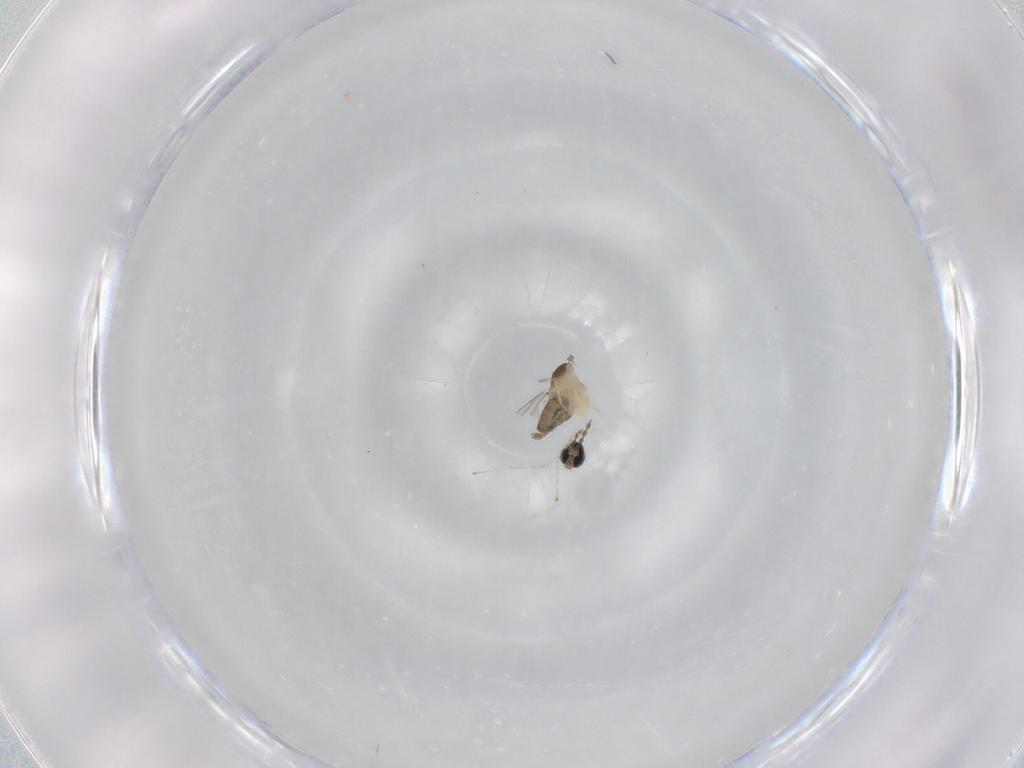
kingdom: Animalia
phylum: Arthropoda
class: Insecta
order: Diptera
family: Cecidomyiidae
